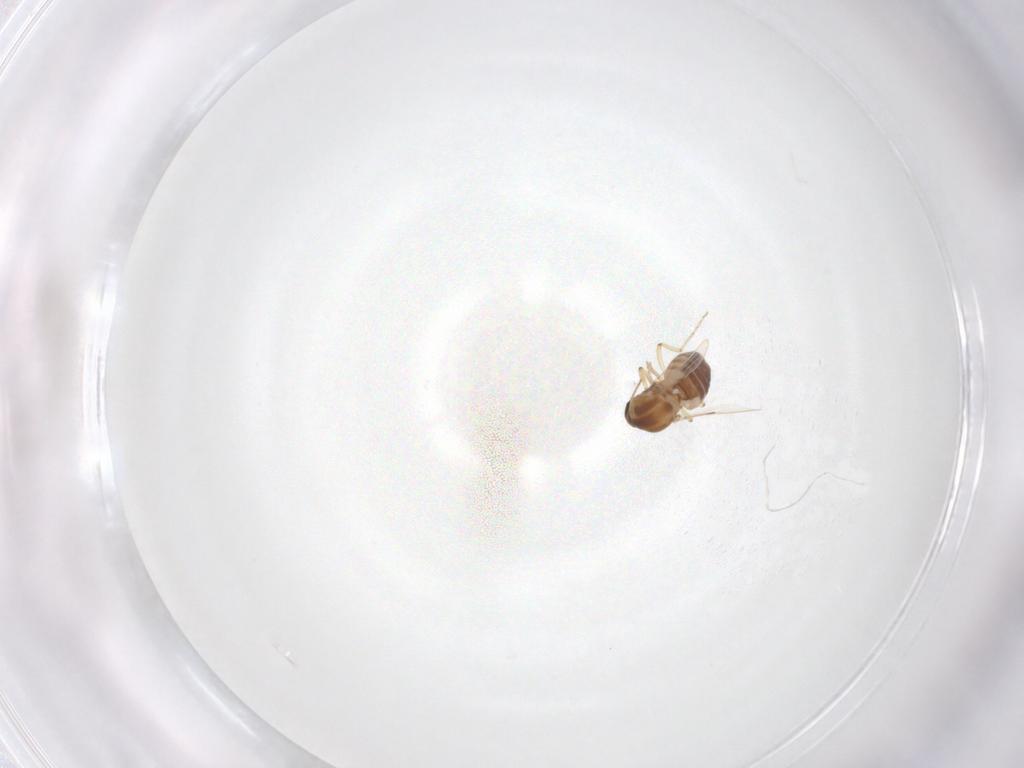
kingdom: Animalia
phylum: Arthropoda
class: Insecta
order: Diptera
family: Ceratopogonidae
